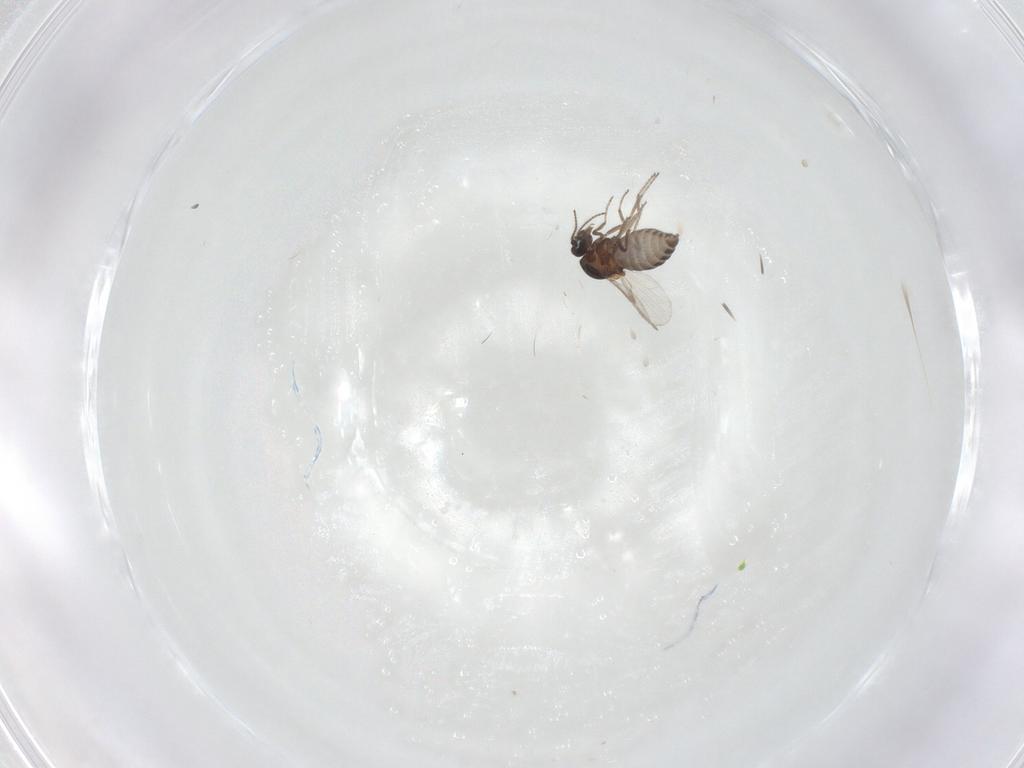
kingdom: Animalia
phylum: Arthropoda
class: Insecta
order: Diptera
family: Ceratopogonidae
